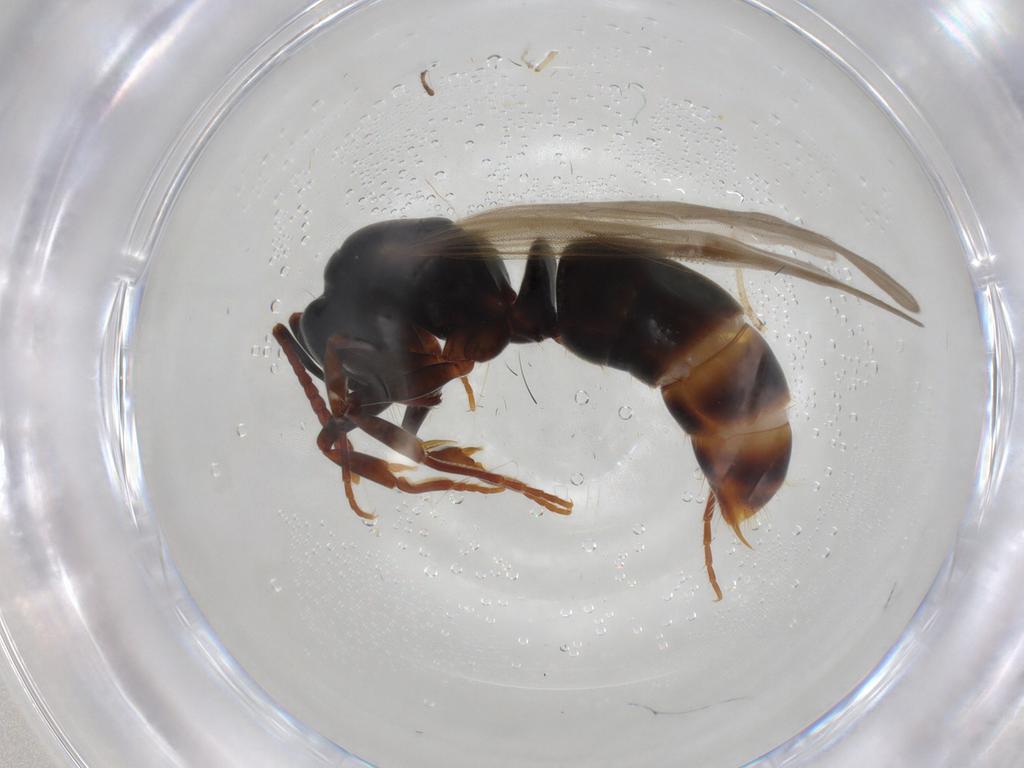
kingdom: Animalia
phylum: Arthropoda
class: Insecta
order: Hymenoptera
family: Formicidae
